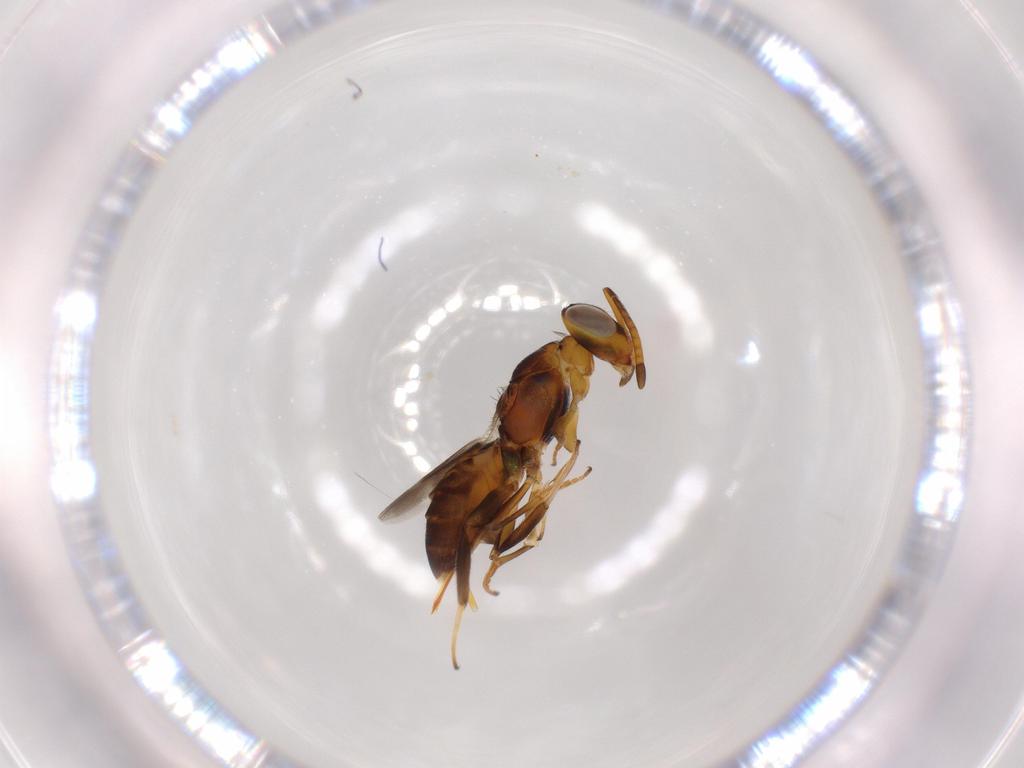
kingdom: Animalia
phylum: Arthropoda
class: Insecta
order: Hymenoptera
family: Eupelmidae
